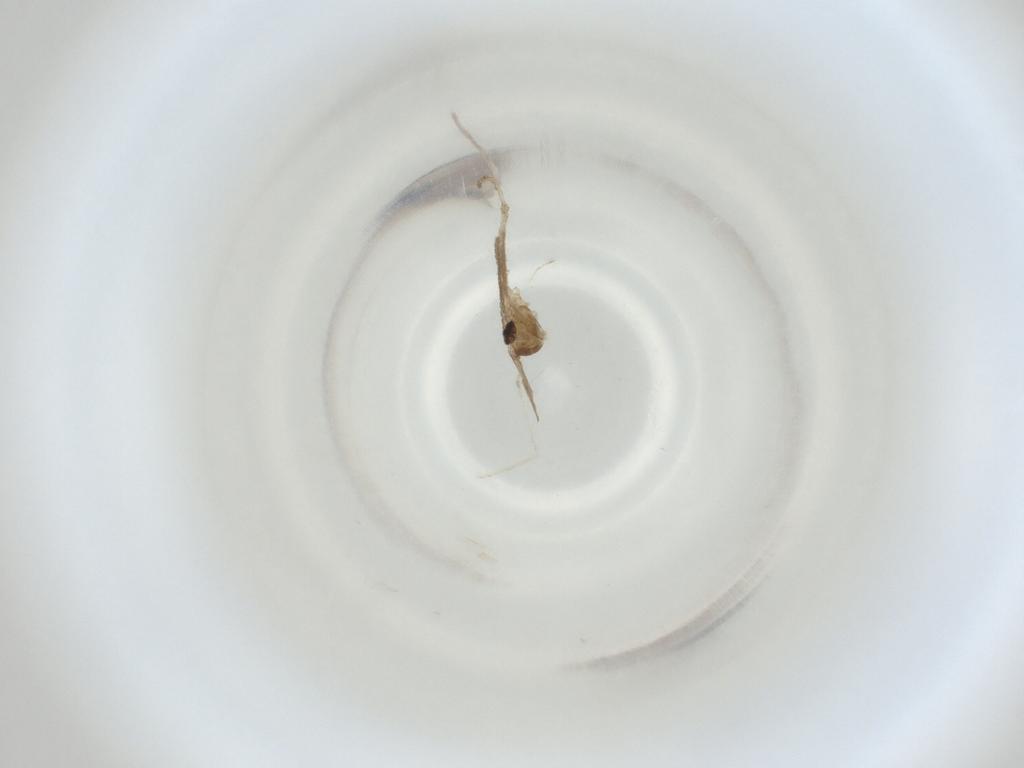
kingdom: Animalia
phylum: Arthropoda
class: Insecta
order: Diptera
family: Cecidomyiidae
